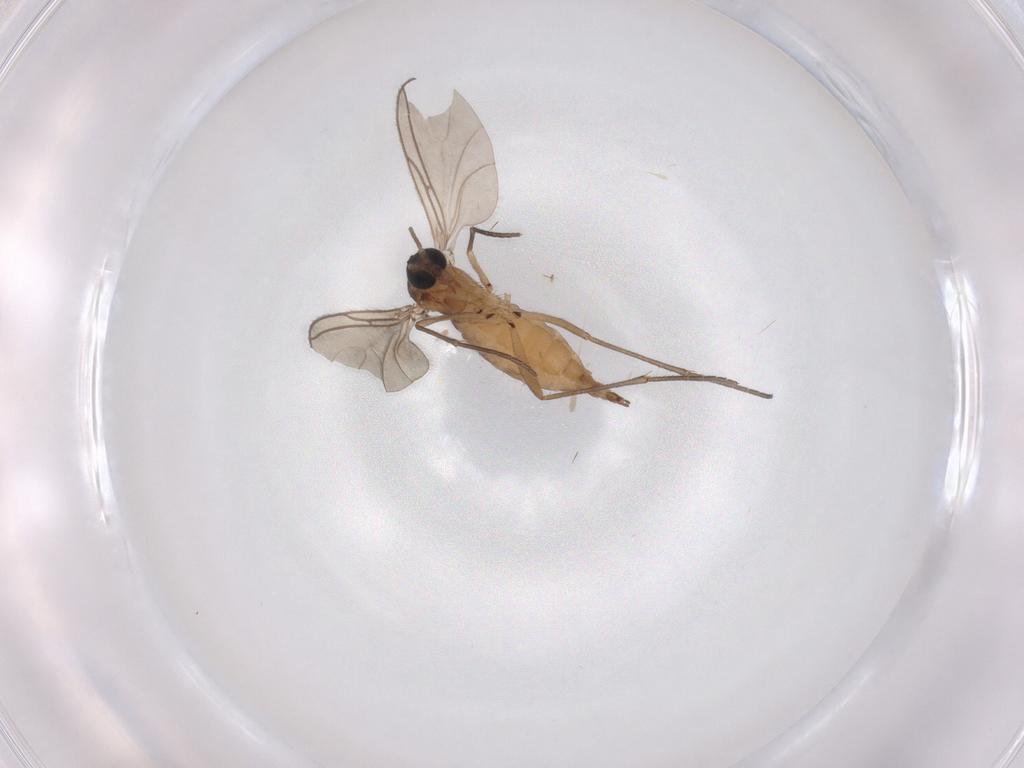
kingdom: Animalia
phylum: Arthropoda
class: Insecta
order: Diptera
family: Sciaridae
